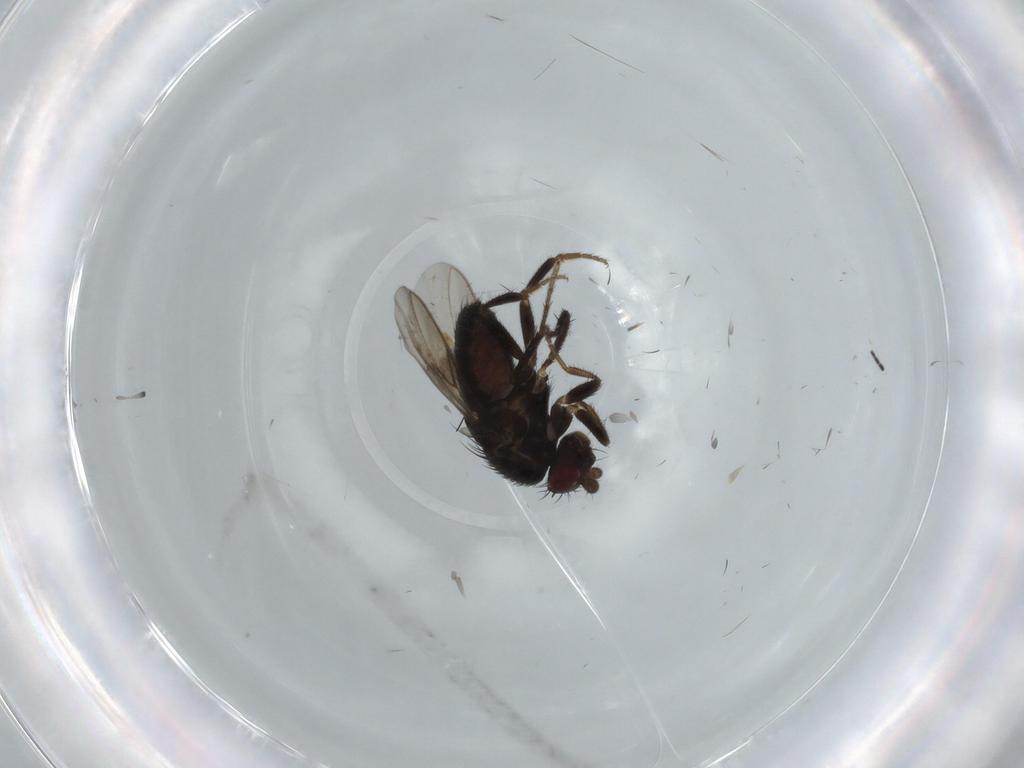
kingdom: Animalia
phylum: Arthropoda
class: Insecta
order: Diptera
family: Sciaridae
